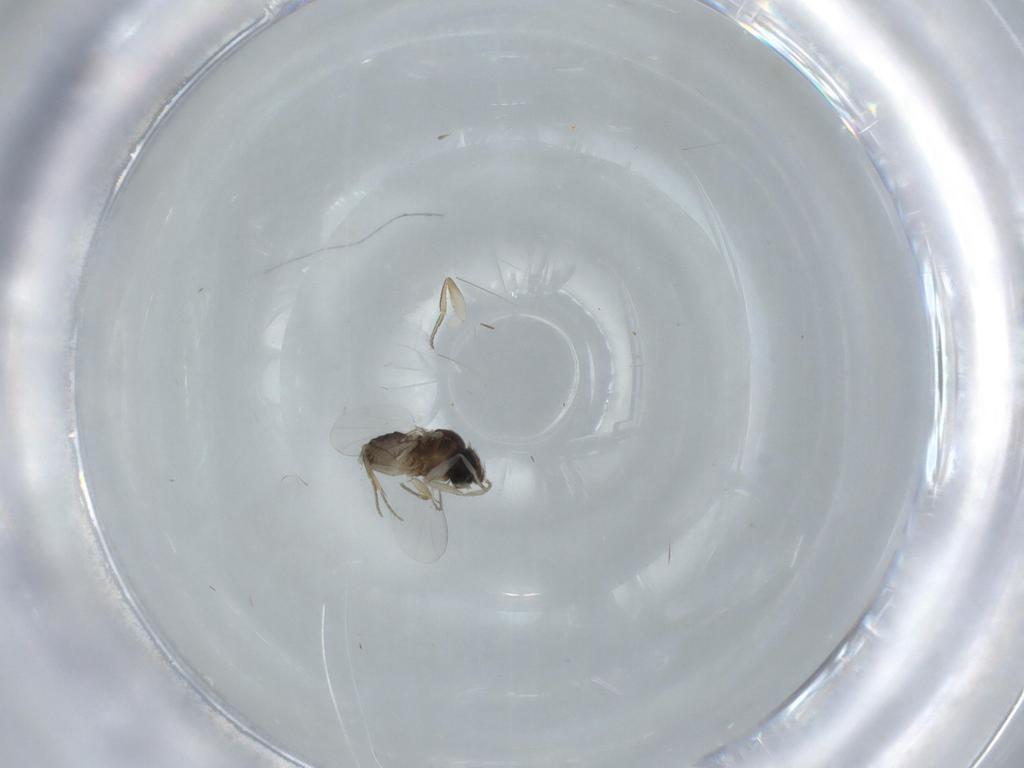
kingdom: Animalia
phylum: Arthropoda
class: Insecta
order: Diptera
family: Phoridae
